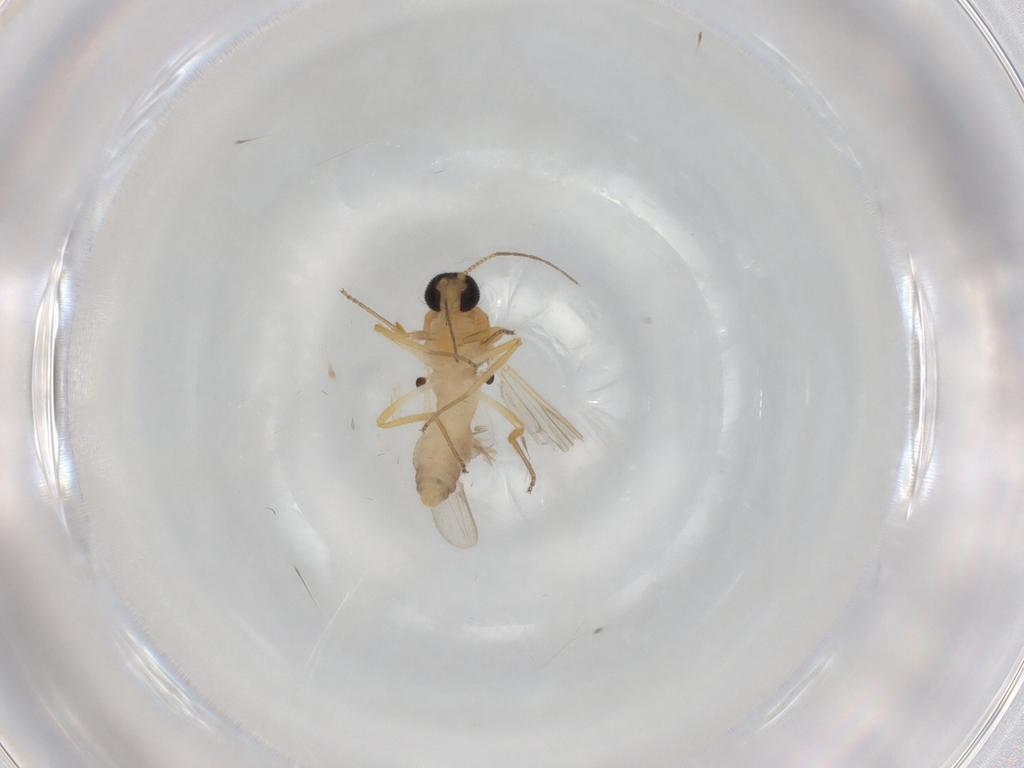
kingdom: Animalia
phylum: Arthropoda
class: Insecta
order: Diptera
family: Ceratopogonidae
